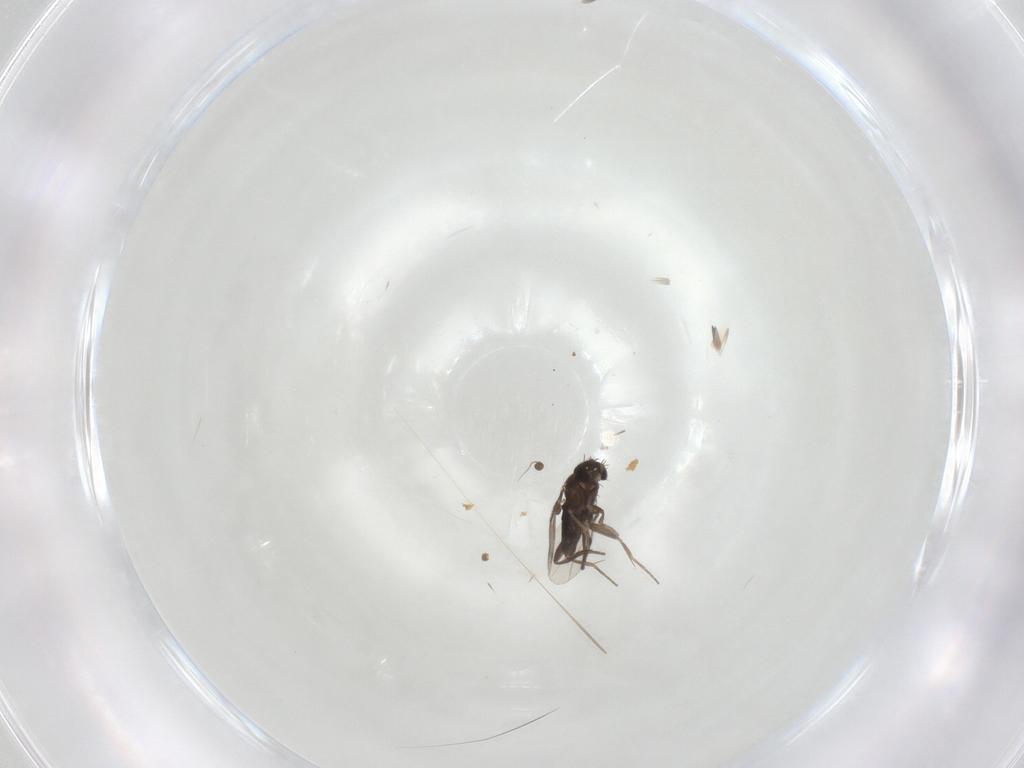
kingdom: Animalia
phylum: Arthropoda
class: Insecta
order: Diptera
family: Phoridae
